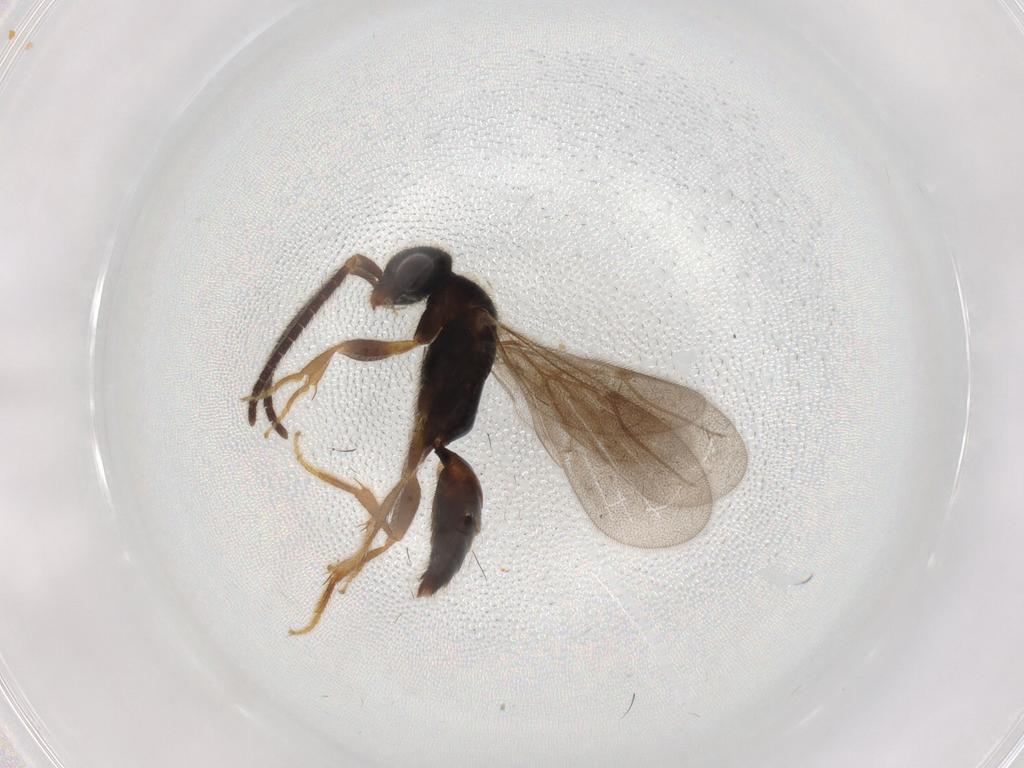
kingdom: Animalia
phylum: Arthropoda
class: Insecta
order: Hymenoptera
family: Bethylidae
